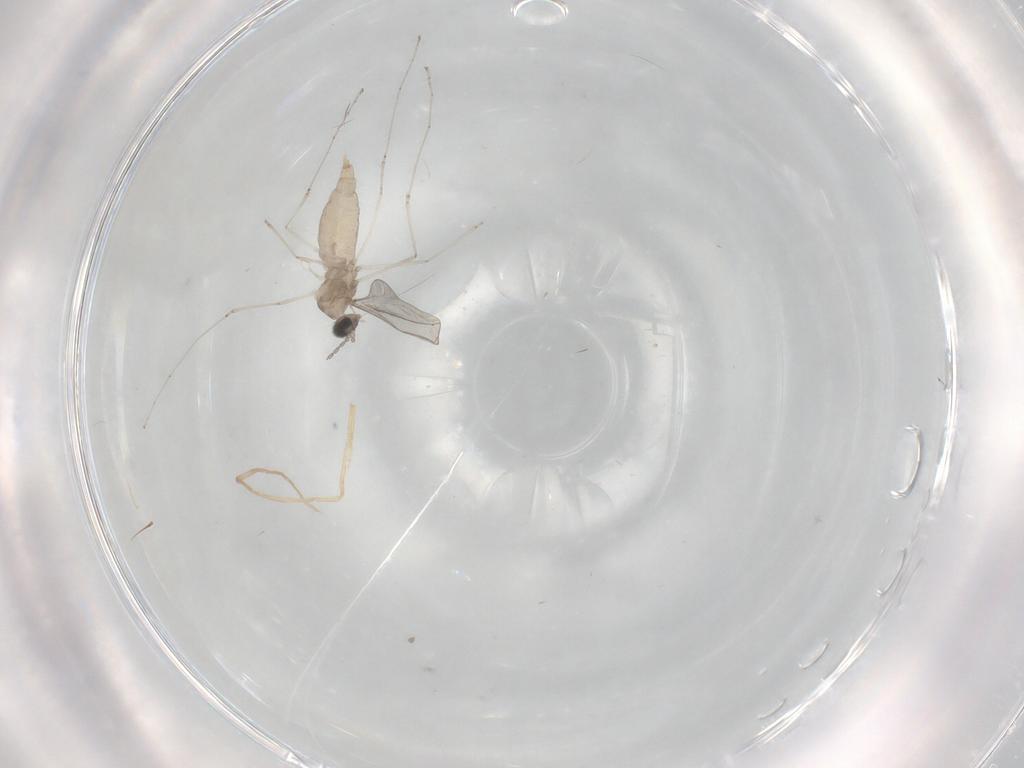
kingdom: Animalia
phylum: Arthropoda
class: Insecta
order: Diptera
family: Cecidomyiidae
